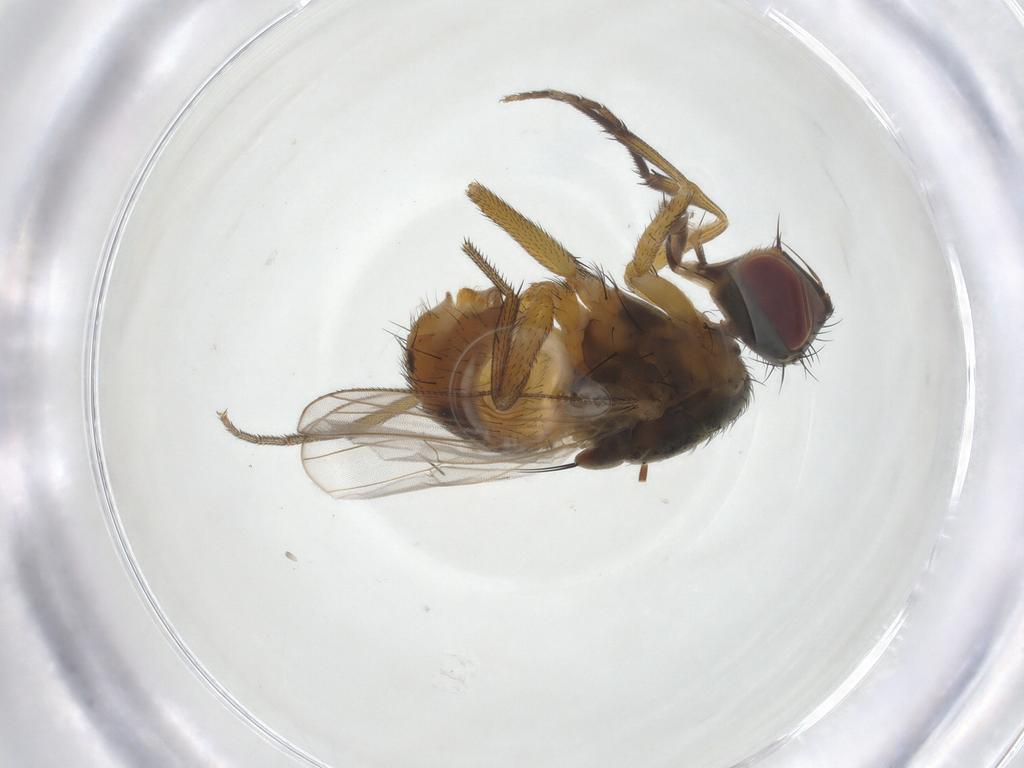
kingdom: Animalia
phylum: Arthropoda
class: Insecta
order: Diptera
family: Muscidae
